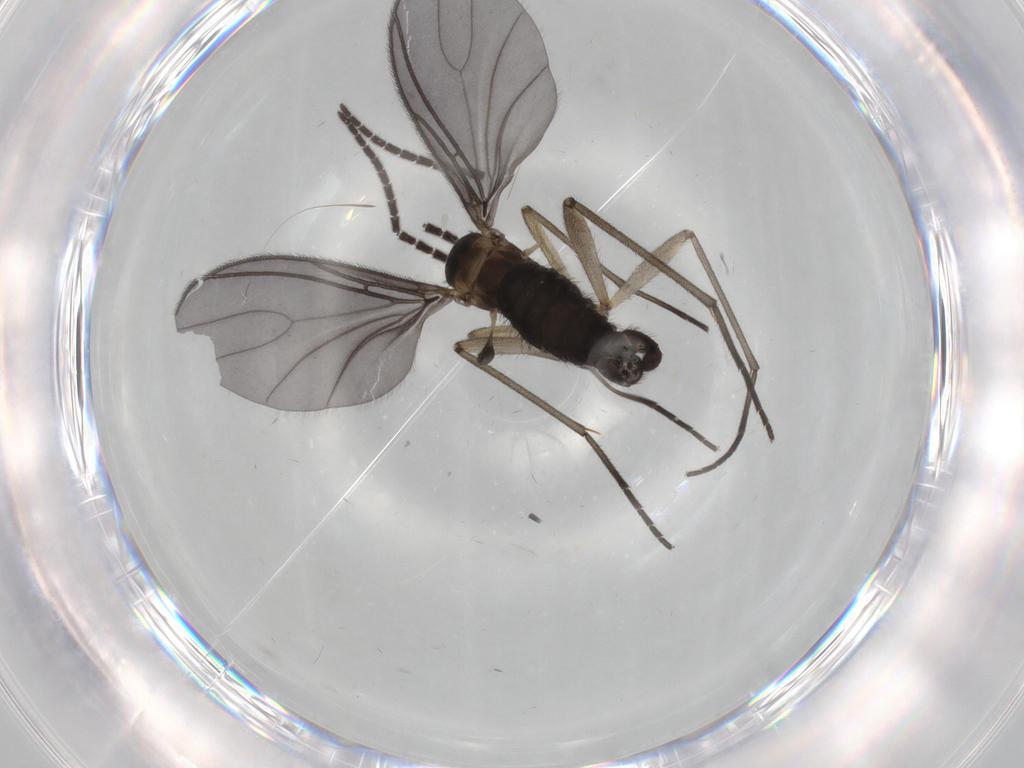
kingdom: Animalia
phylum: Arthropoda
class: Insecta
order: Diptera
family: Sciaridae
